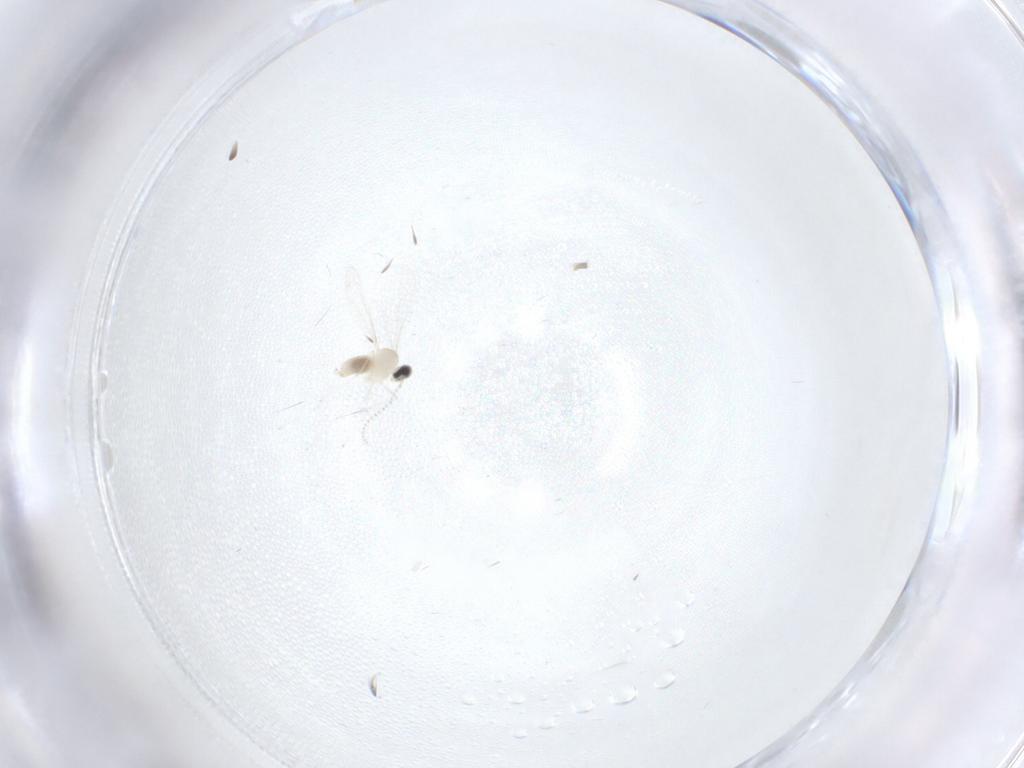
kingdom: Animalia
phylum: Arthropoda
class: Insecta
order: Diptera
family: Cecidomyiidae
